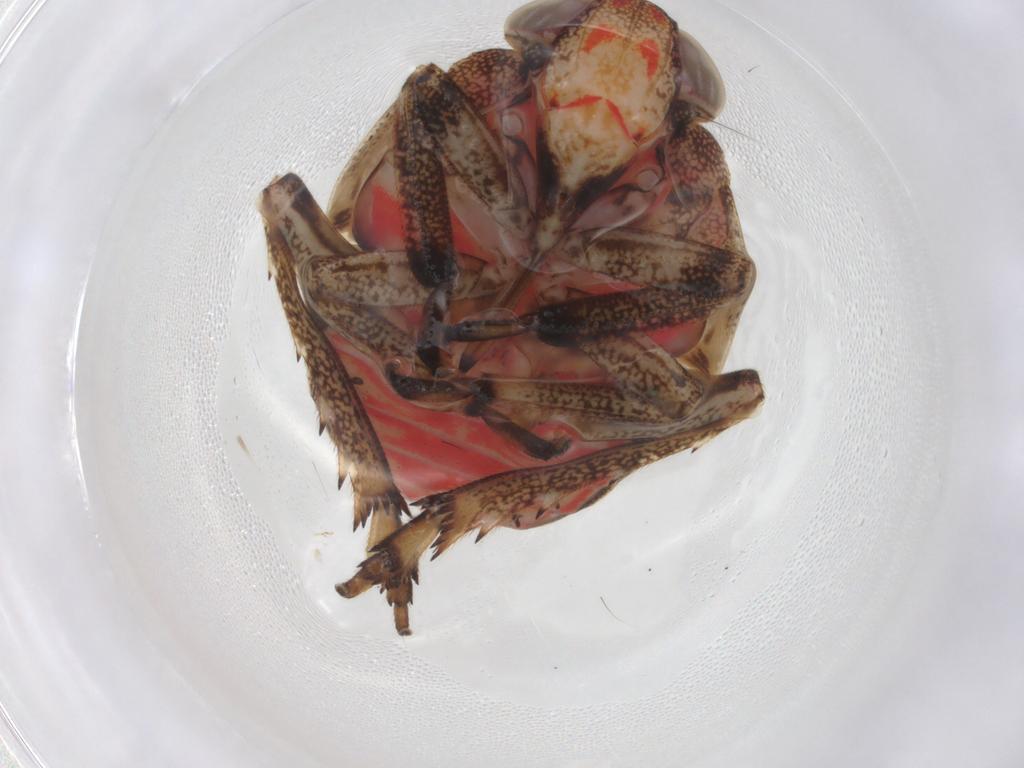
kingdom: Animalia
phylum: Arthropoda
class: Insecta
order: Hemiptera
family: Issidae
